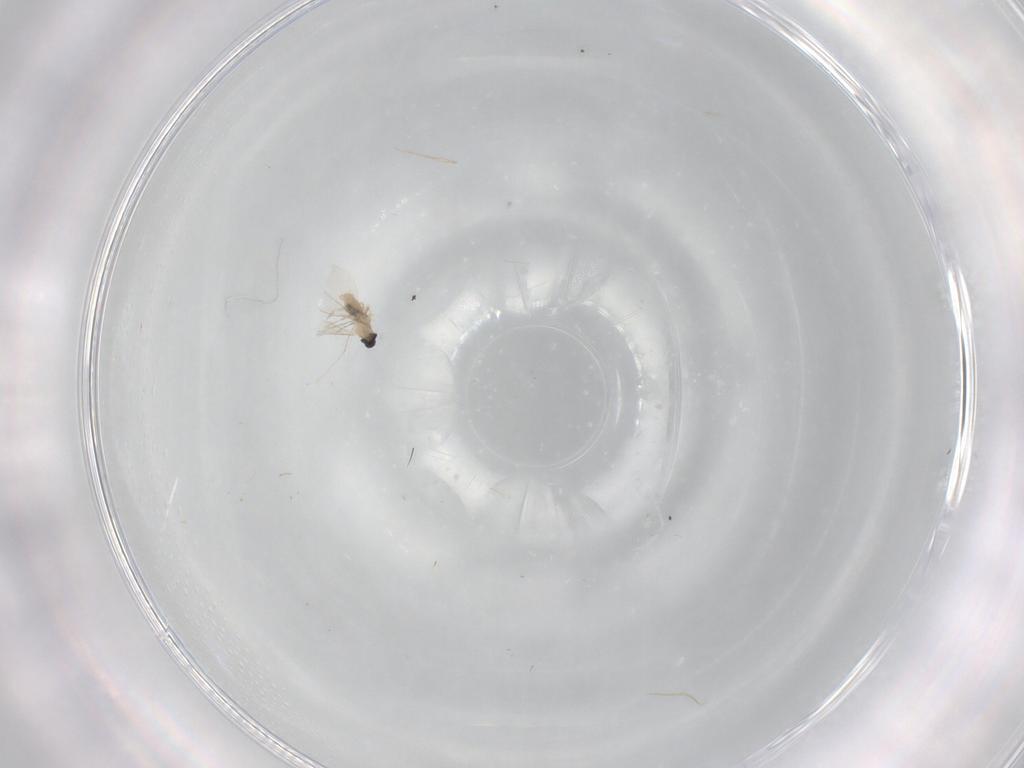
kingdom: Animalia
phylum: Arthropoda
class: Insecta
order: Diptera
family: Cecidomyiidae
